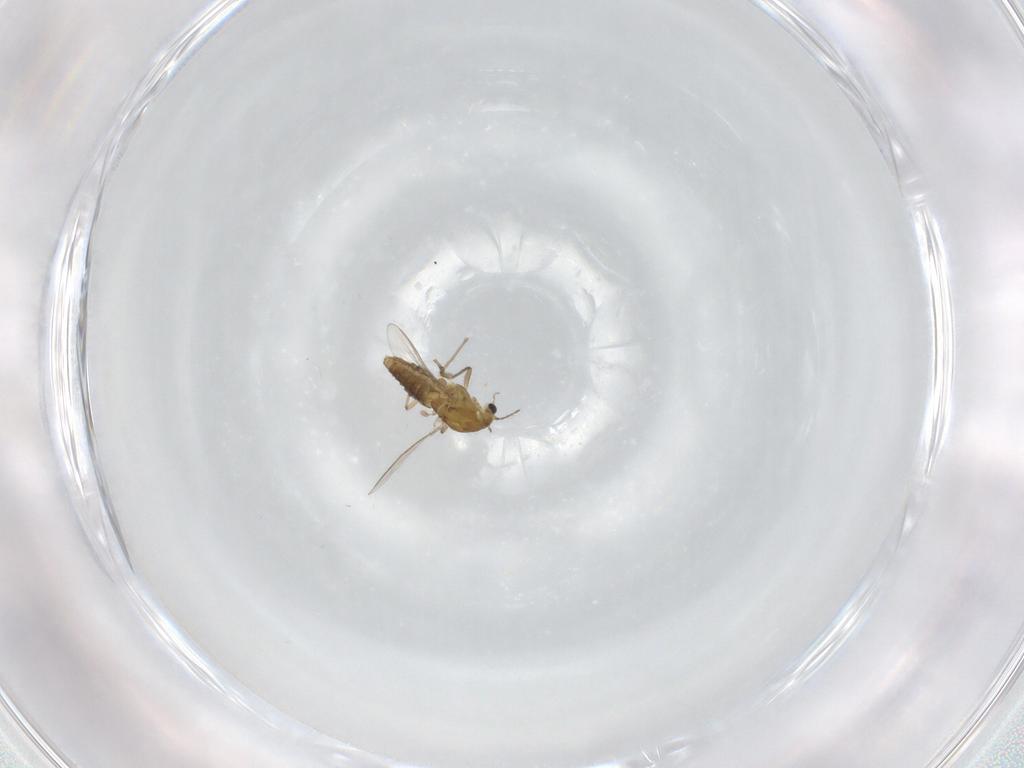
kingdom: Animalia
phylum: Arthropoda
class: Insecta
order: Diptera
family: Chironomidae
